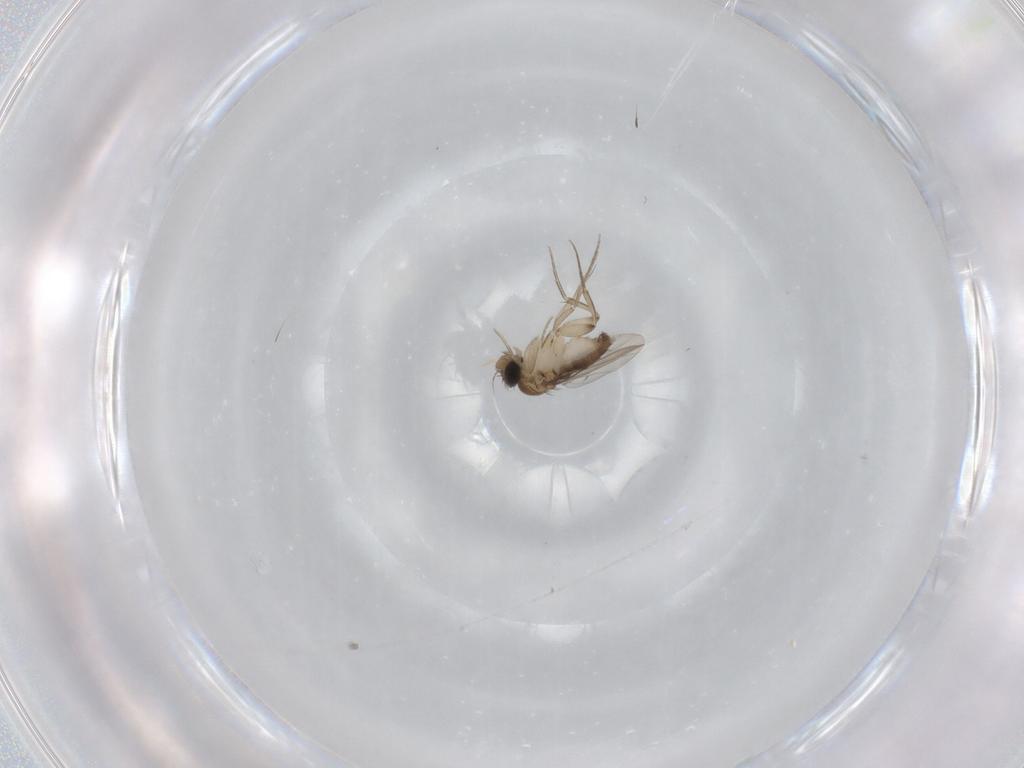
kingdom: Animalia
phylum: Arthropoda
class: Insecta
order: Diptera
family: Phoridae
